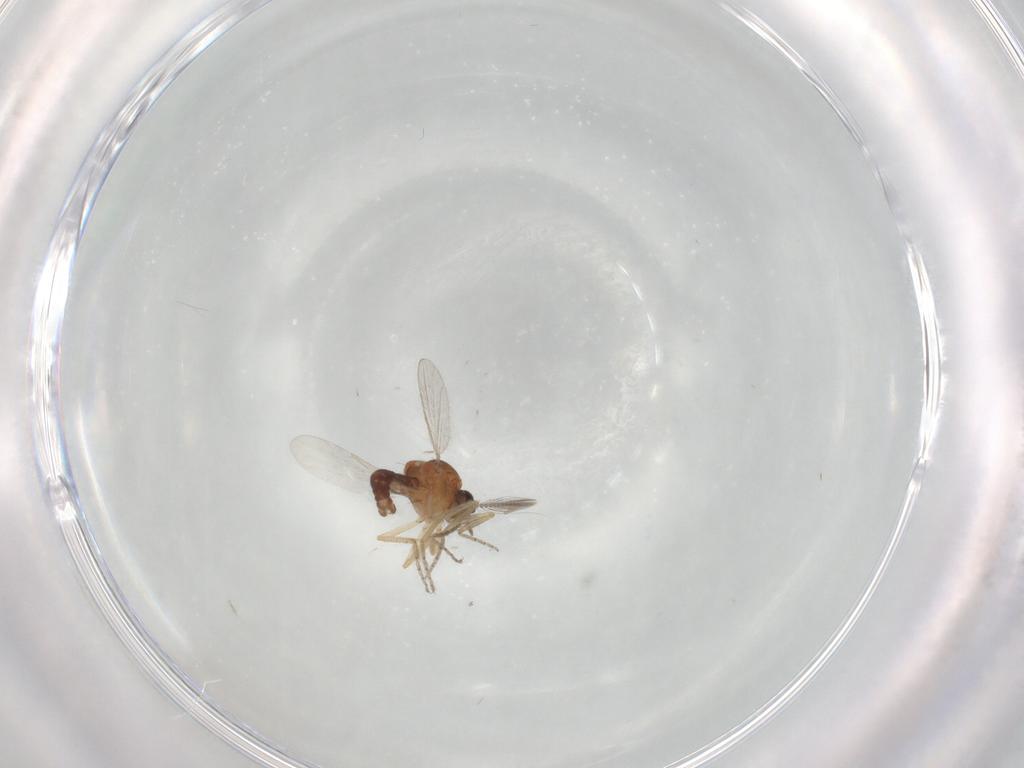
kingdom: Animalia
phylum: Arthropoda
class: Insecta
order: Diptera
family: Ceratopogonidae
